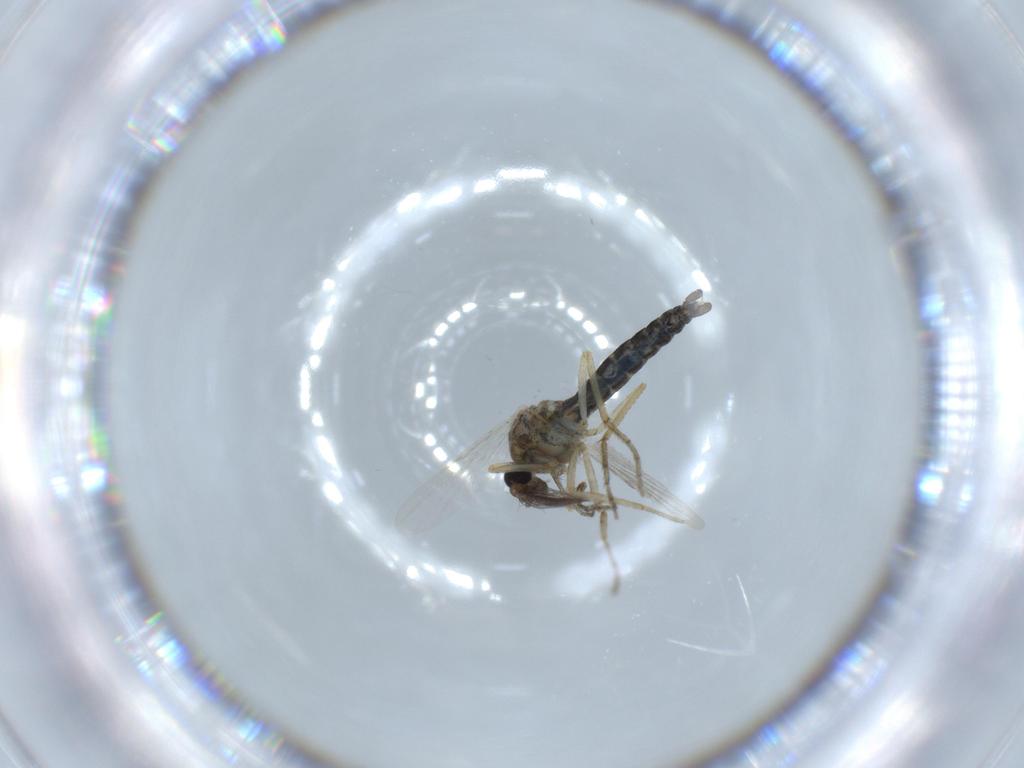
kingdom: Animalia
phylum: Arthropoda
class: Insecta
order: Diptera
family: Ceratopogonidae
